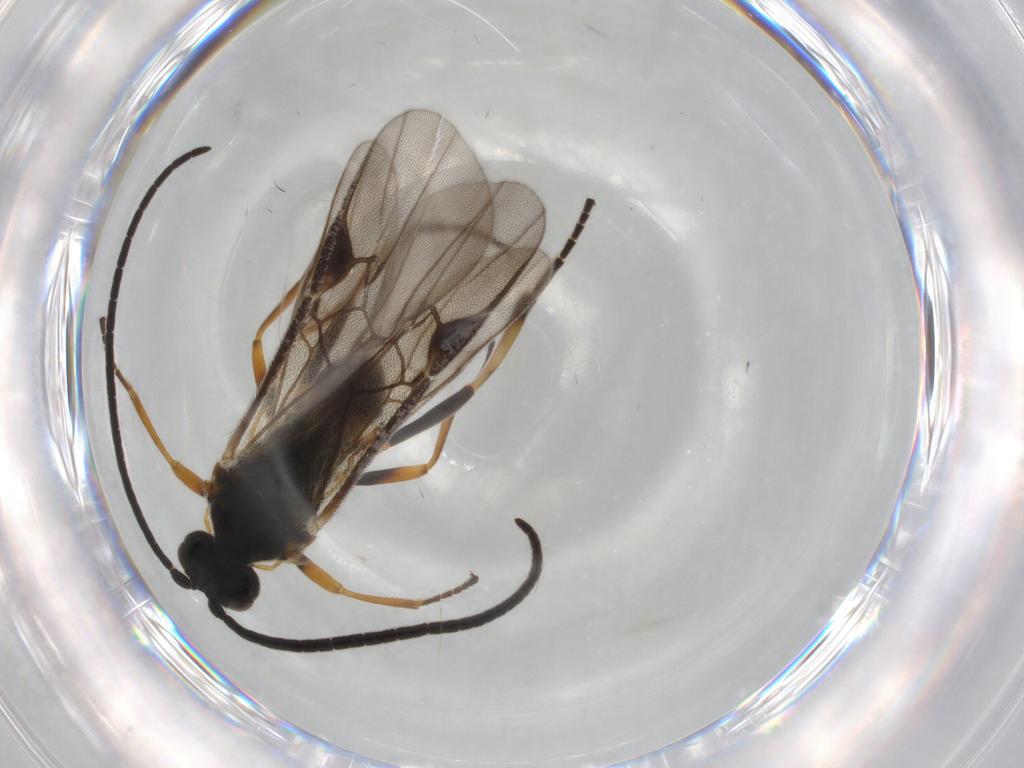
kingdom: Animalia
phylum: Arthropoda
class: Insecta
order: Hymenoptera
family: Braconidae
